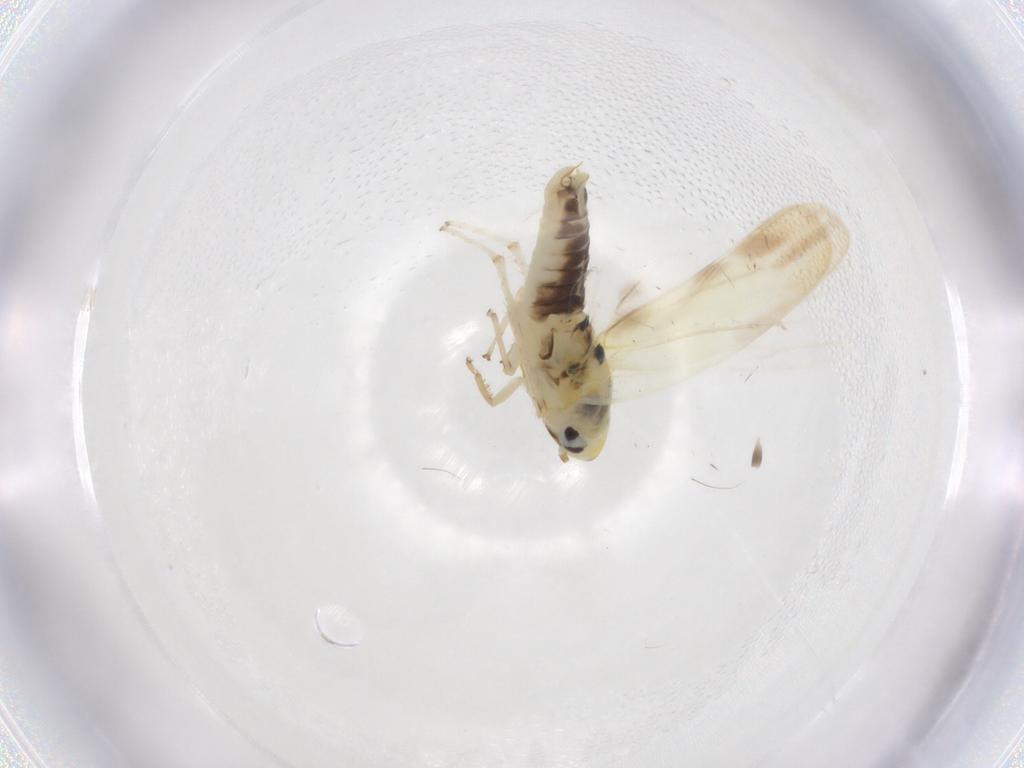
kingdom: Animalia
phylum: Arthropoda
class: Insecta
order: Hemiptera
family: Cicadellidae
